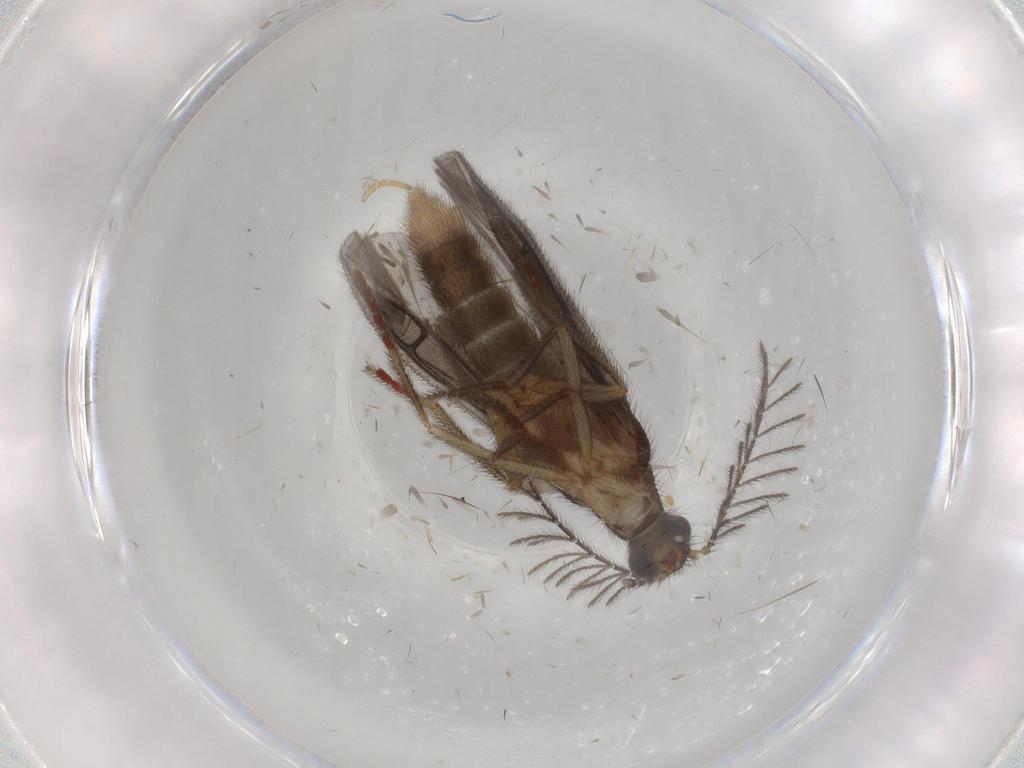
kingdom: Animalia
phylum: Arthropoda
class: Insecta
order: Coleoptera
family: Phengodidae
